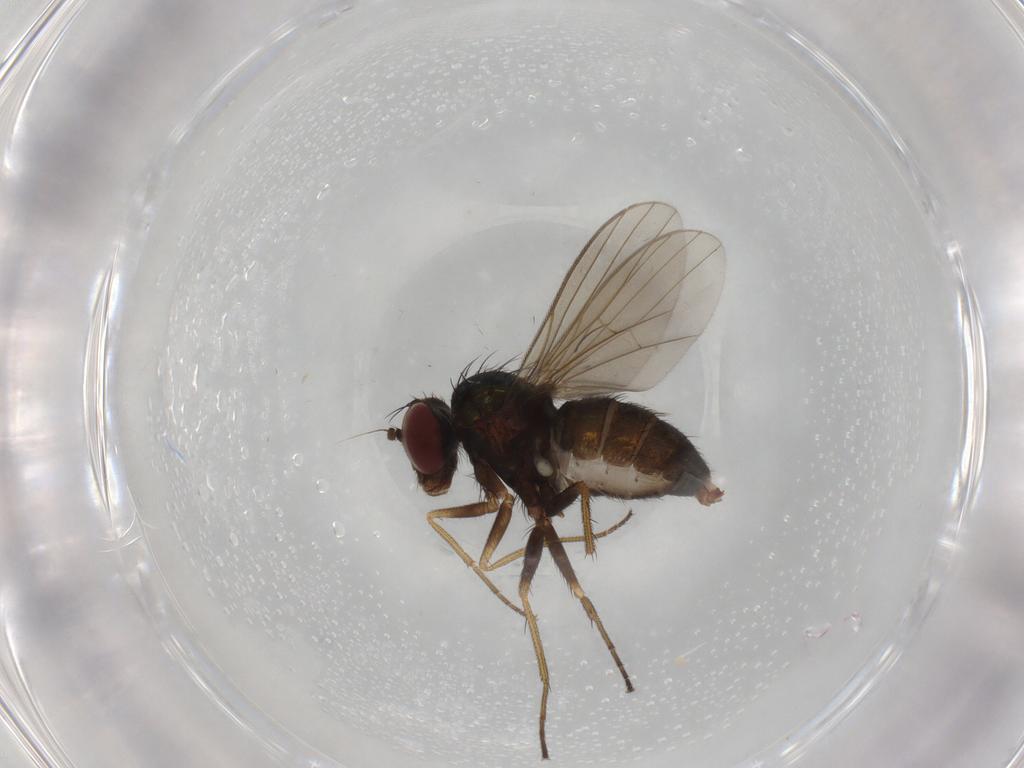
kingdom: Animalia
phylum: Arthropoda
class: Insecta
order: Diptera
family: Dolichopodidae
